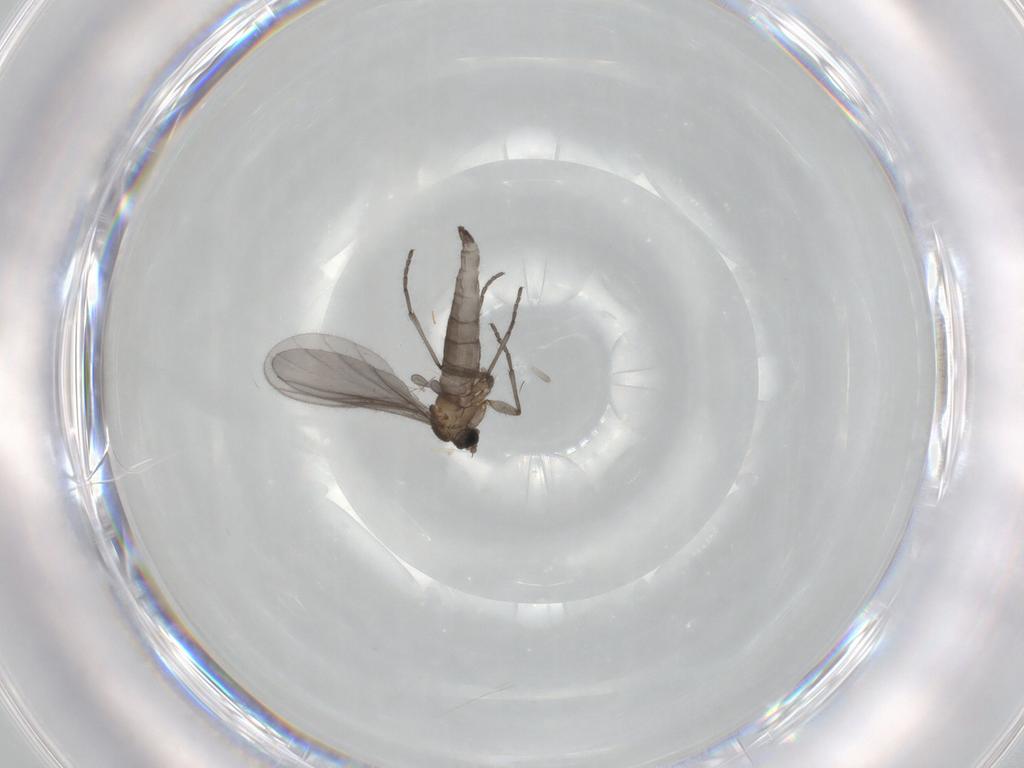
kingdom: Animalia
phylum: Arthropoda
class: Insecta
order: Diptera
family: Sciaridae
